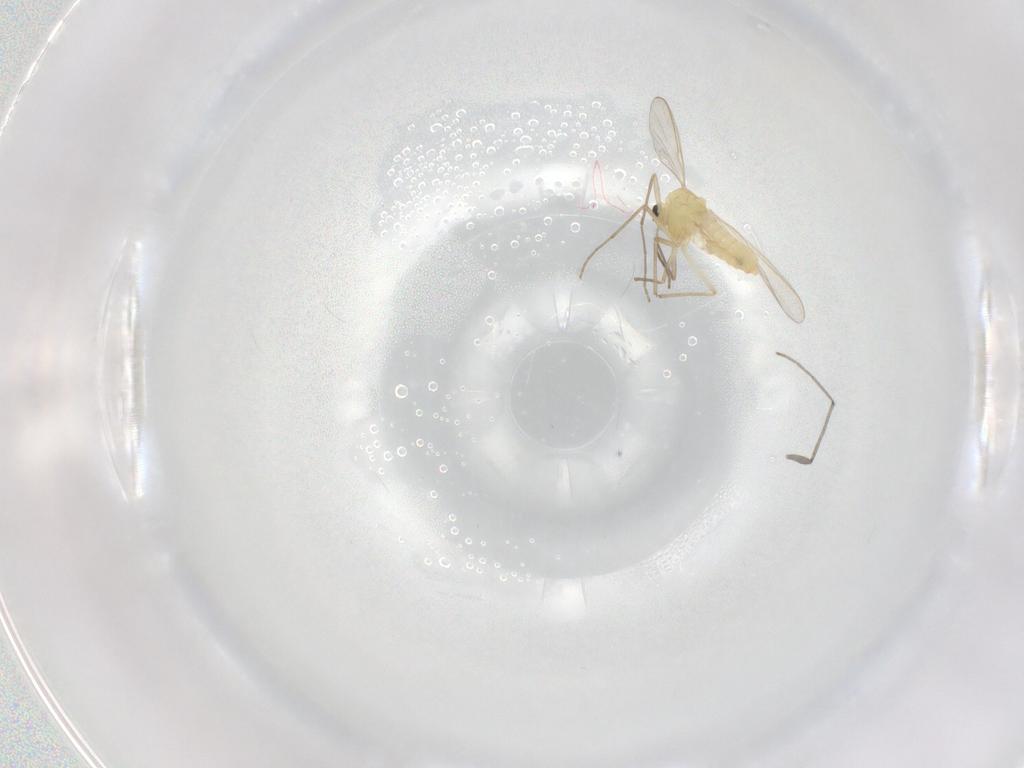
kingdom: Animalia
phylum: Arthropoda
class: Insecta
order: Diptera
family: Chironomidae
